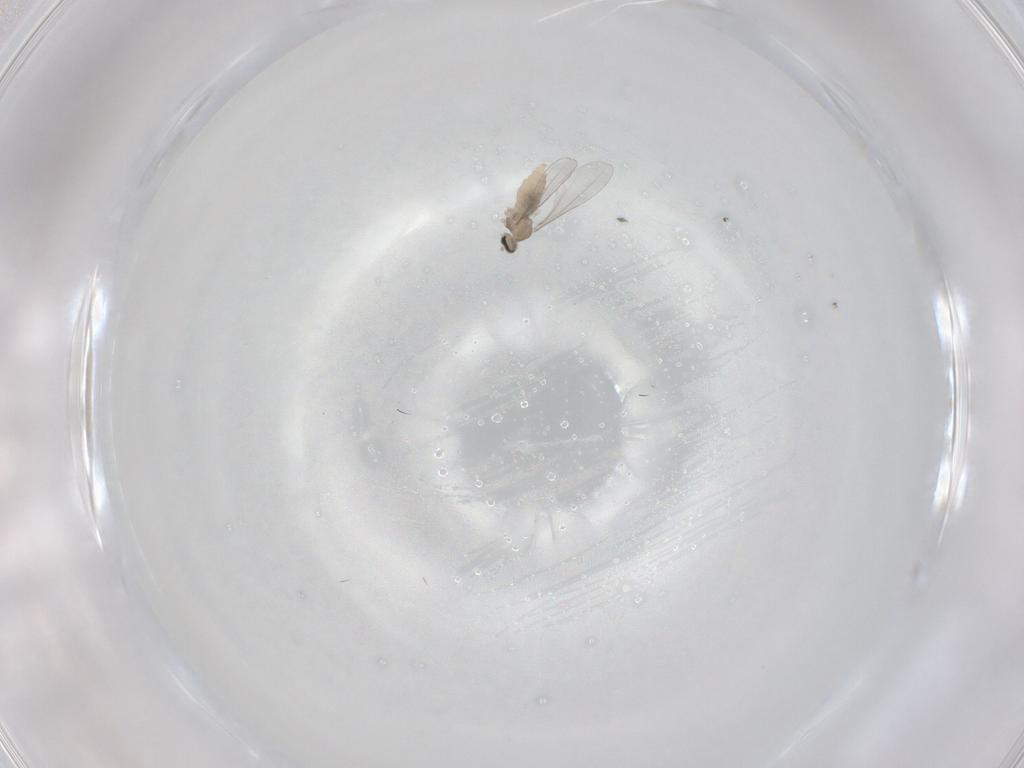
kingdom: Animalia
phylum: Arthropoda
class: Insecta
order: Diptera
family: Cecidomyiidae
